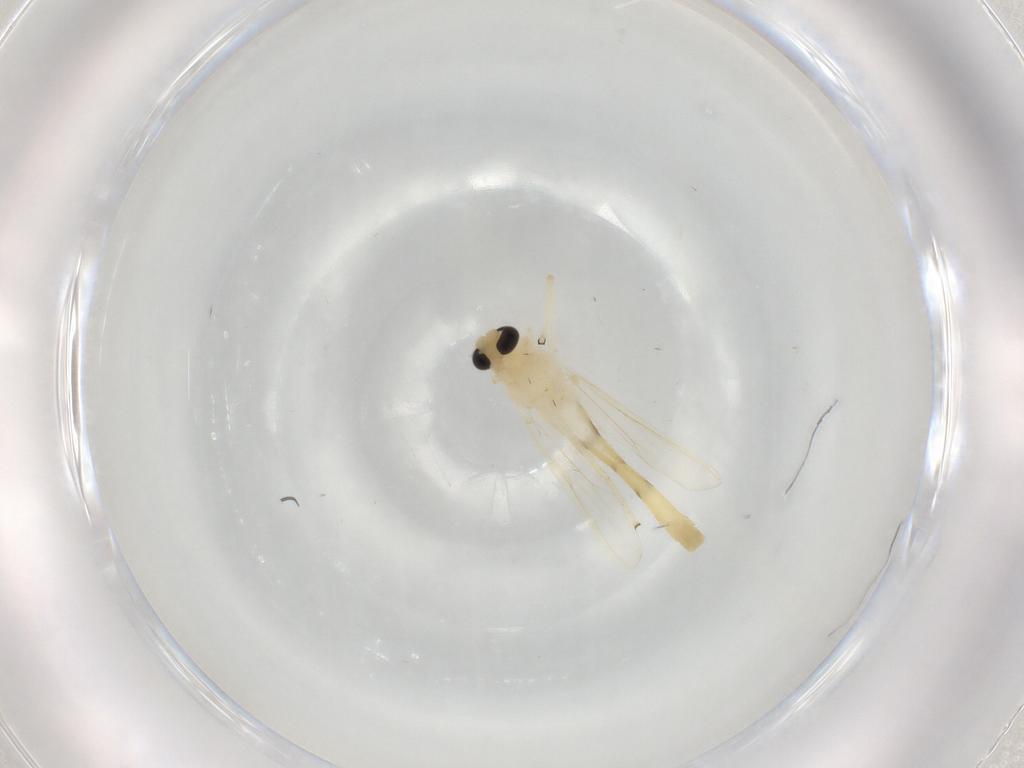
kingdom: Animalia
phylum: Arthropoda
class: Insecta
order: Diptera
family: Chironomidae
